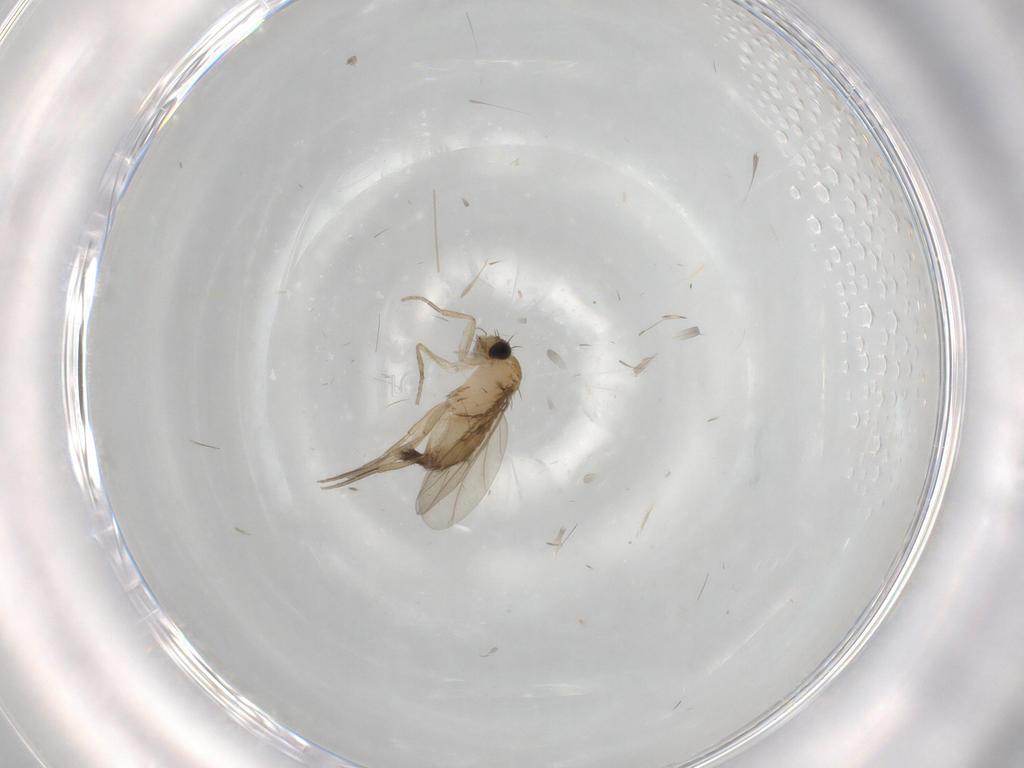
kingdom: Animalia
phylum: Arthropoda
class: Insecta
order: Diptera
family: Phoridae
